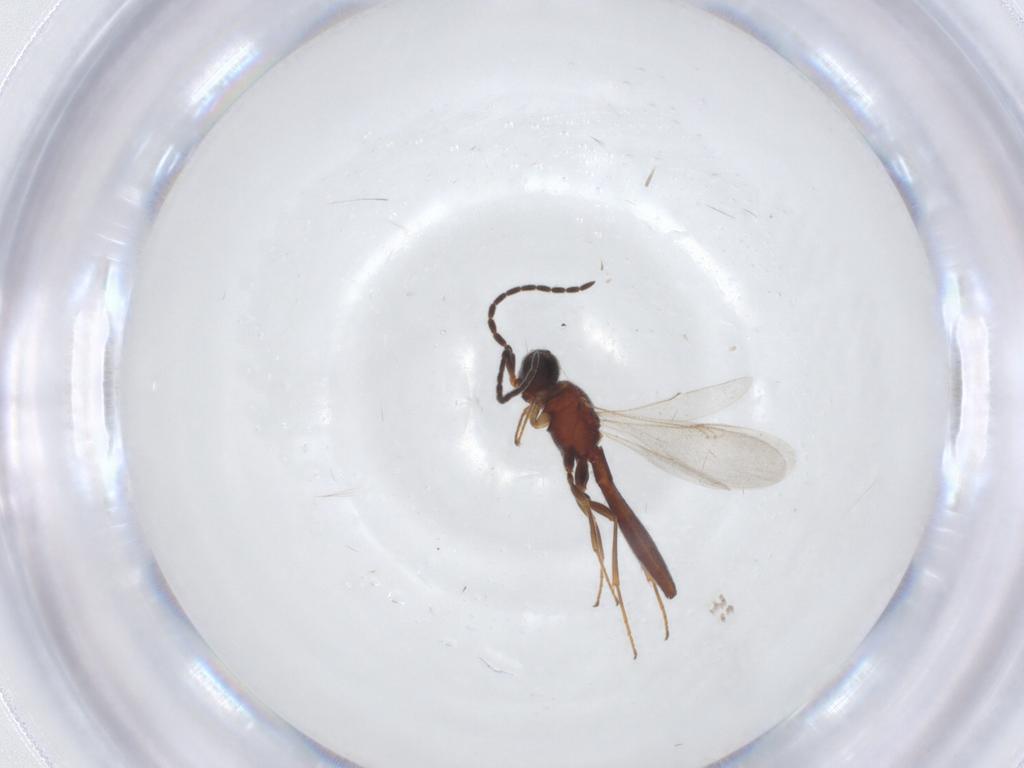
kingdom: Animalia
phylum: Arthropoda
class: Insecta
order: Hymenoptera
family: Scelionidae
